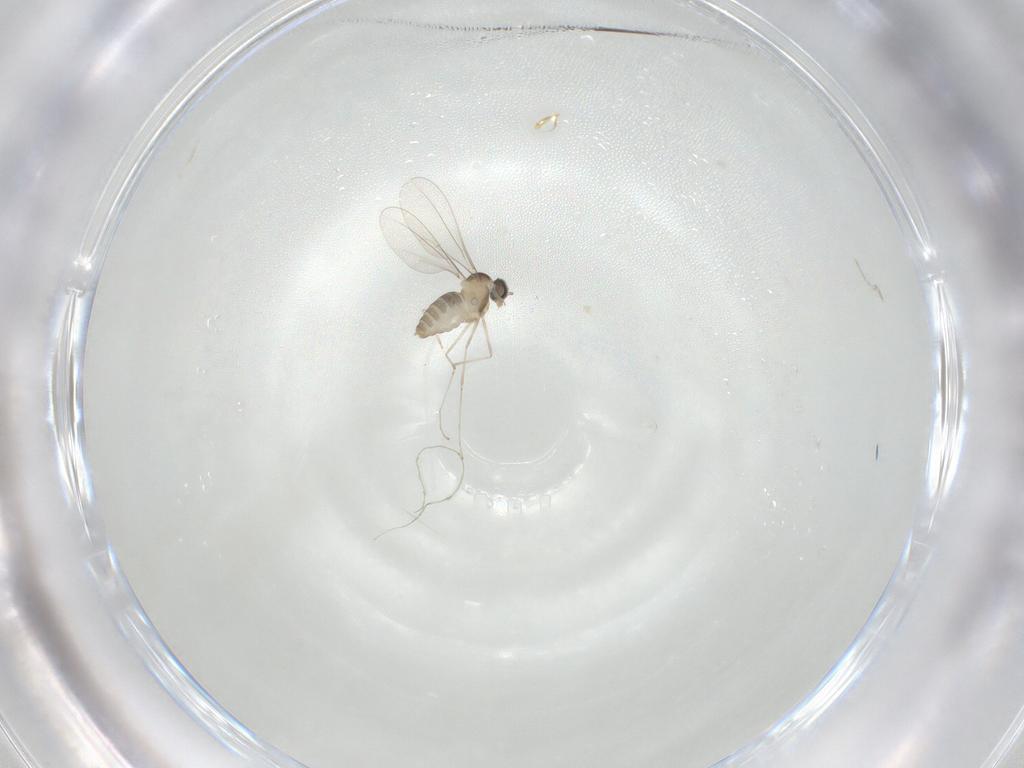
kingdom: Animalia
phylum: Arthropoda
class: Insecta
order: Diptera
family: Cecidomyiidae
